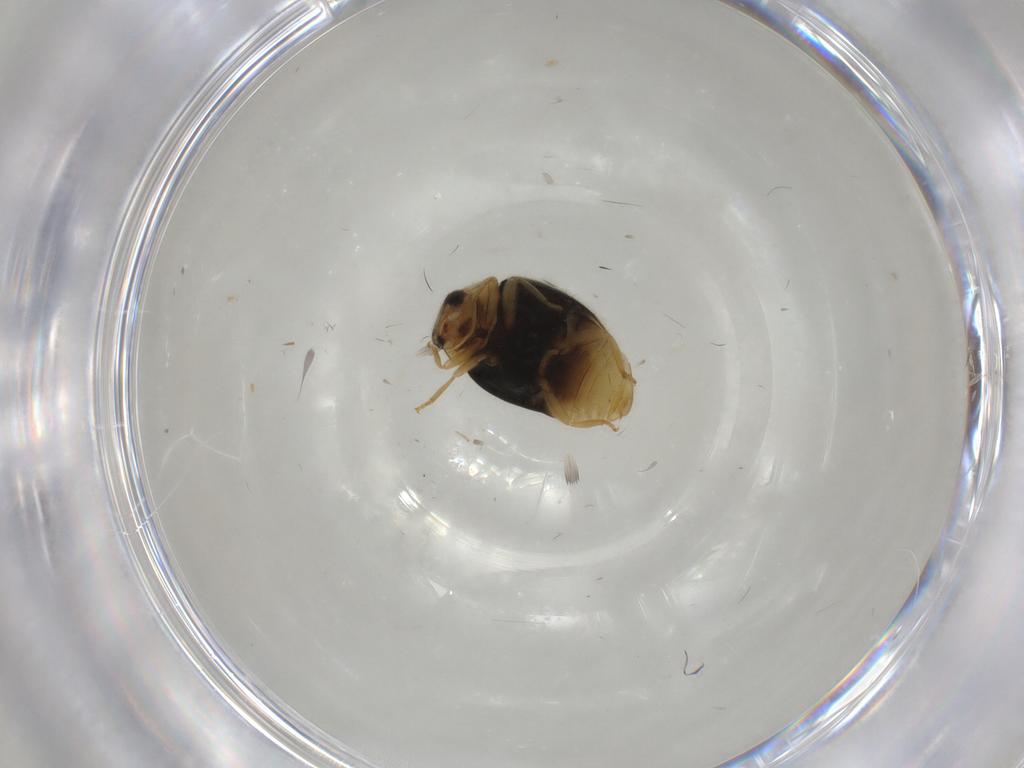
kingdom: Animalia
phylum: Arthropoda
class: Insecta
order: Coleoptera
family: Coccinellidae
